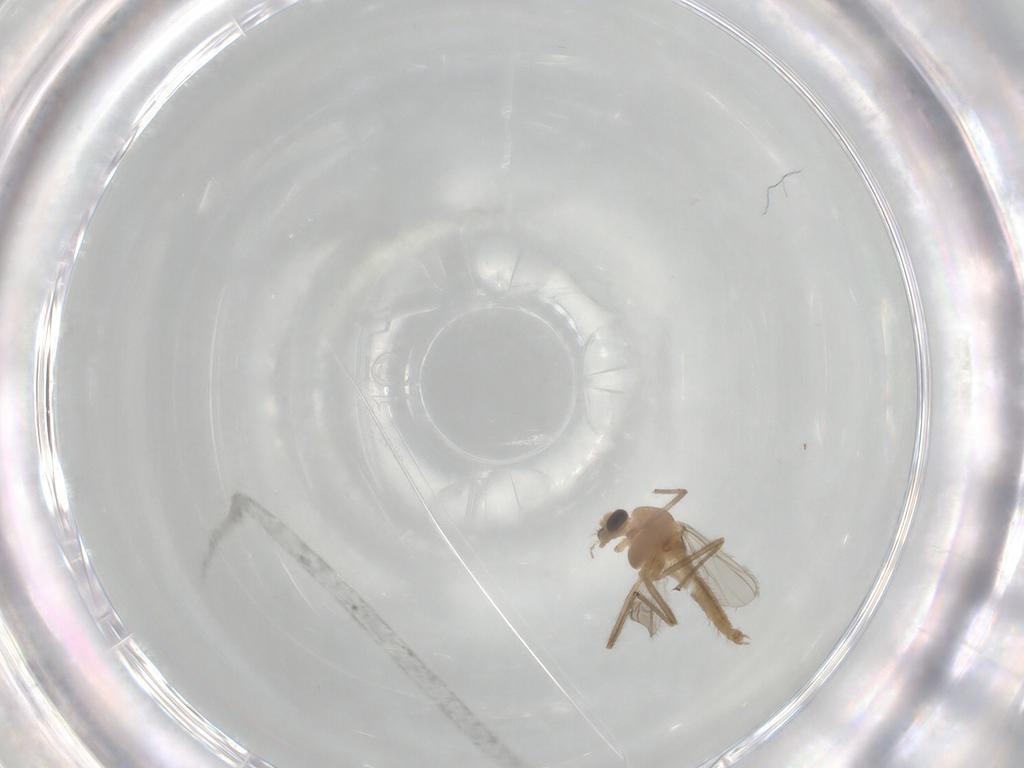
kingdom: Animalia
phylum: Arthropoda
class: Insecta
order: Diptera
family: Chironomidae
